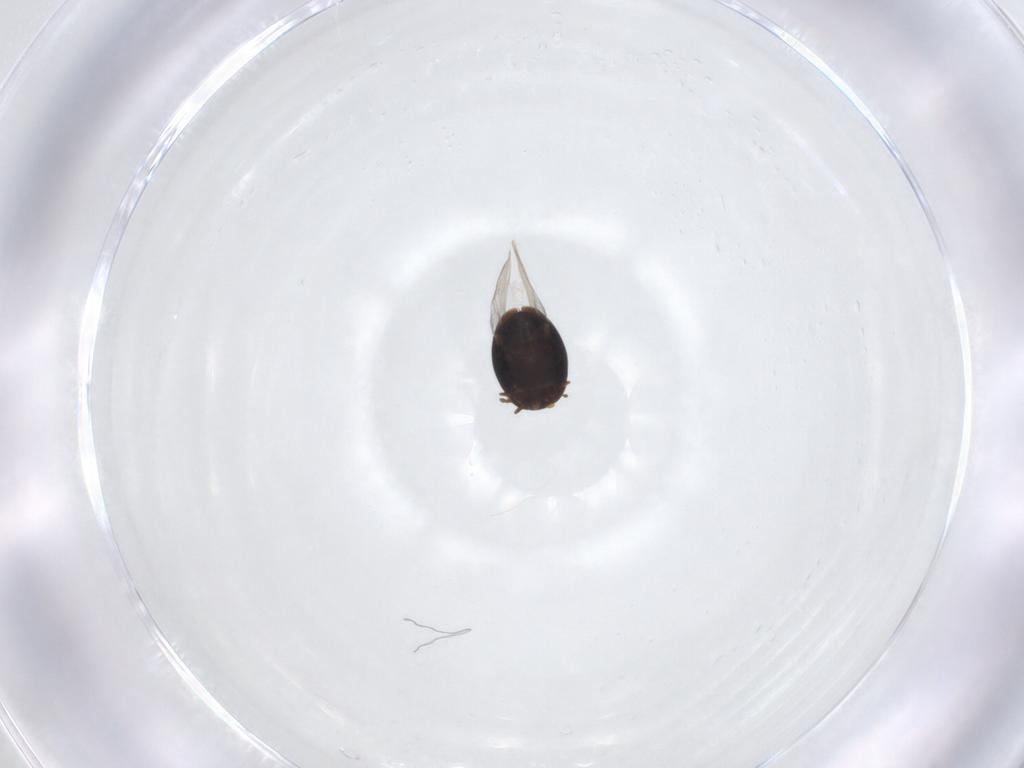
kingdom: Animalia
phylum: Arthropoda
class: Insecta
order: Coleoptera
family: Corylophidae
